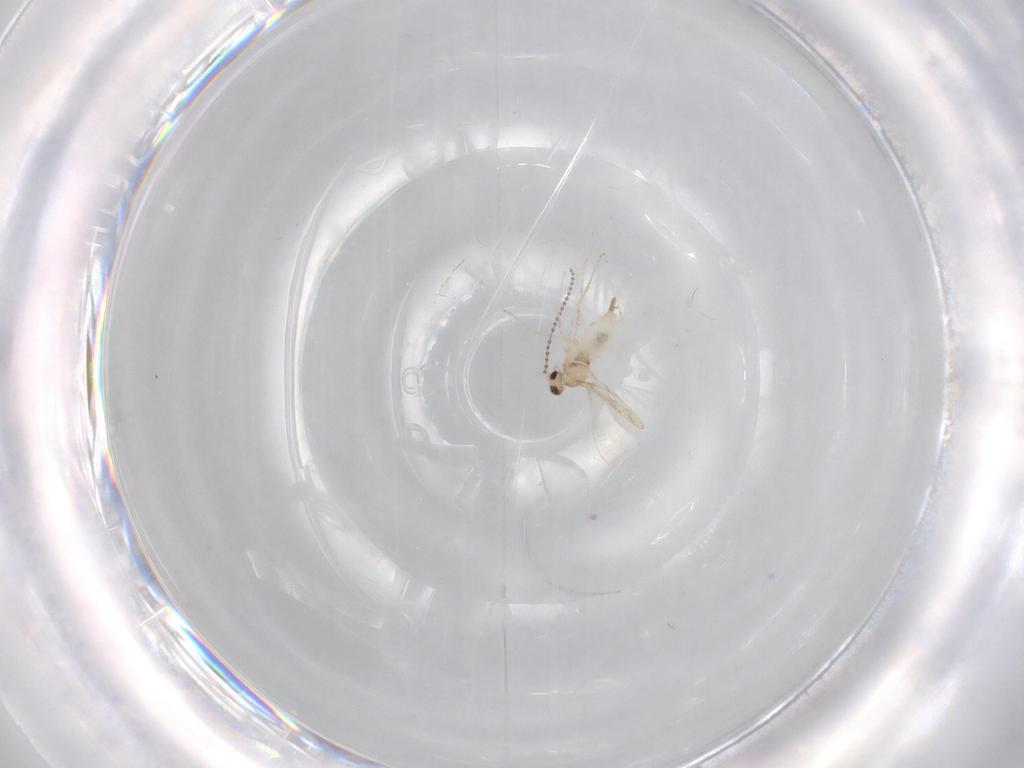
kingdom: Animalia
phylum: Arthropoda
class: Insecta
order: Diptera
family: Cecidomyiidae
